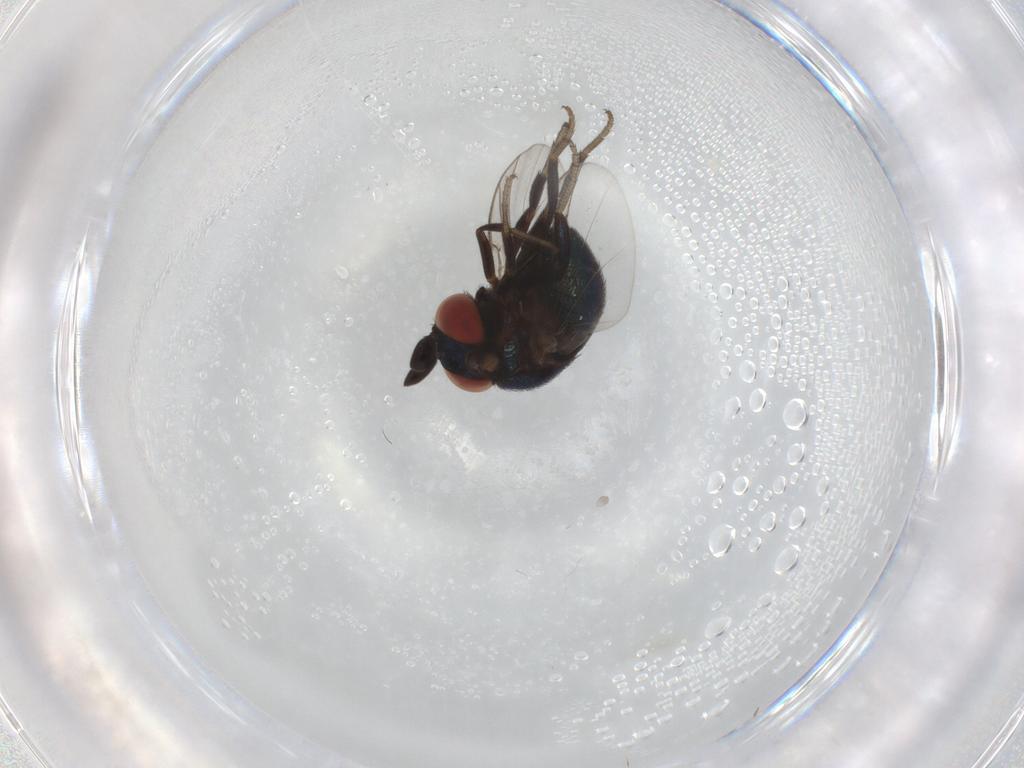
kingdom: Animalia
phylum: Arthropoda
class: Insecta
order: Diptera
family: Cryptochetidae
